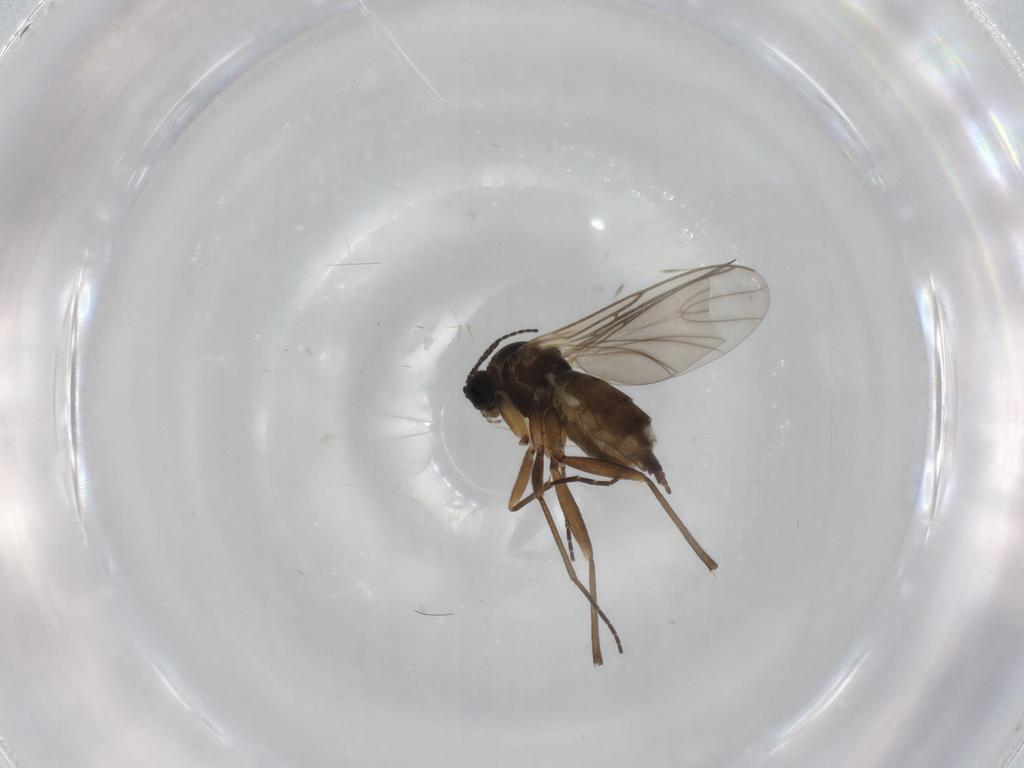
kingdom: Animalia
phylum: Arthropoda
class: Insecta
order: Diptera
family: Sciaridae
